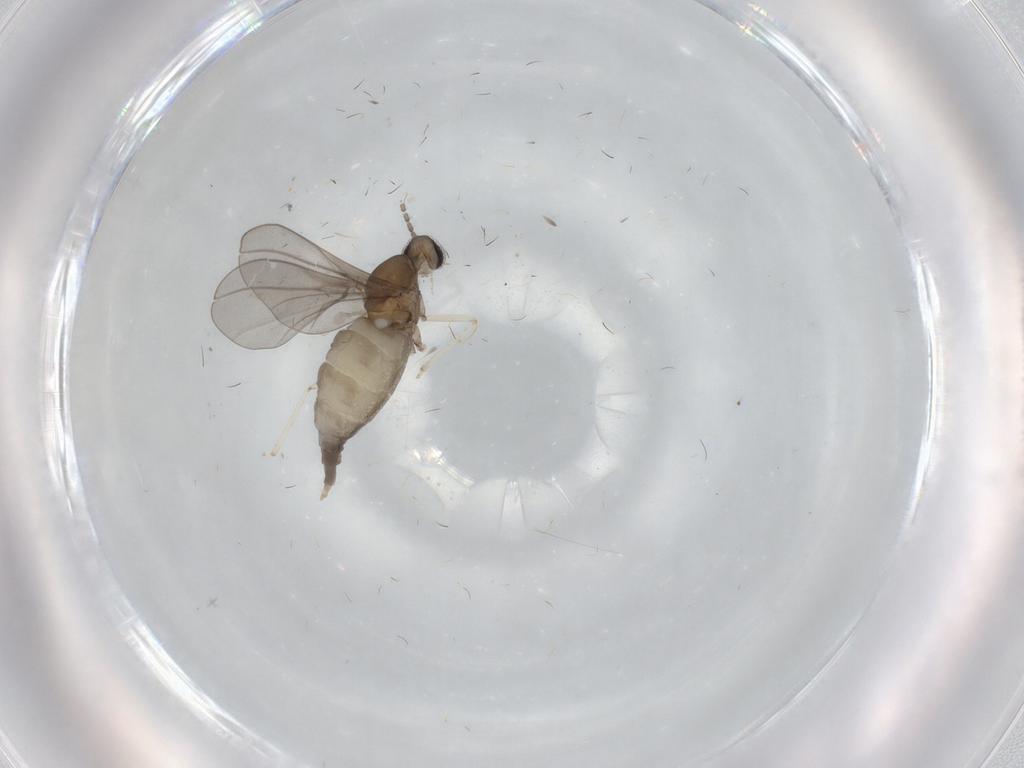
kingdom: Animalia
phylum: Arthropoda
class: Insecta
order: Diptera
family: Cecidomyiidae
